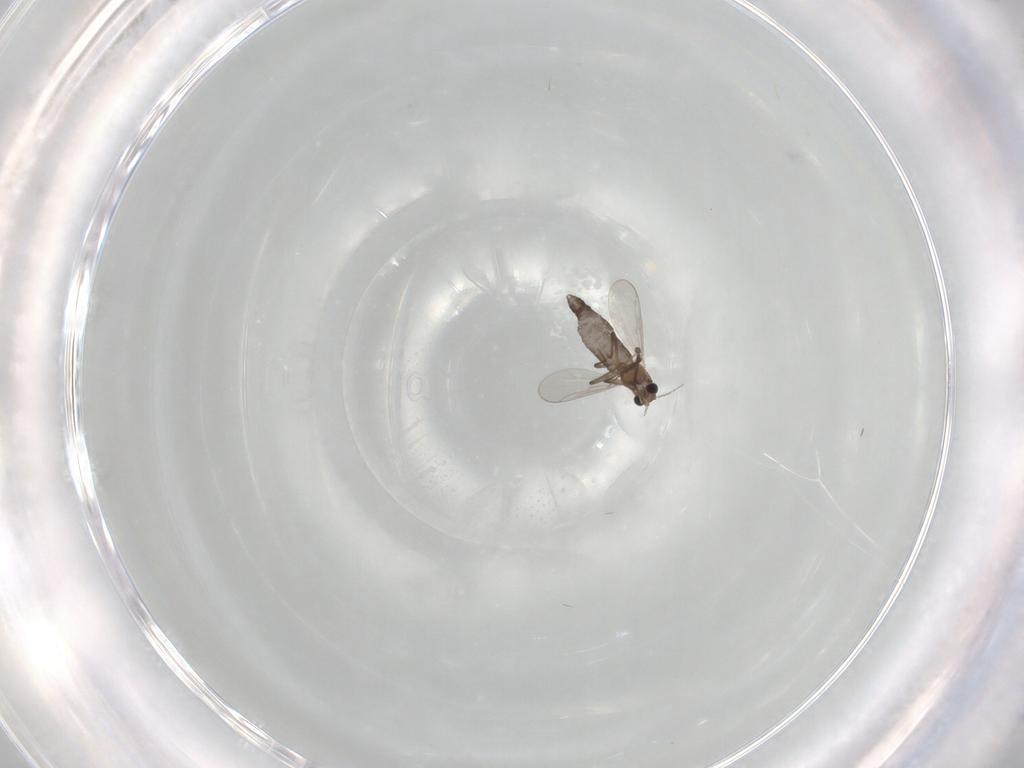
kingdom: Animalia
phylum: Arthropoda
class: Insecta
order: Diptera
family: Chironomidae
